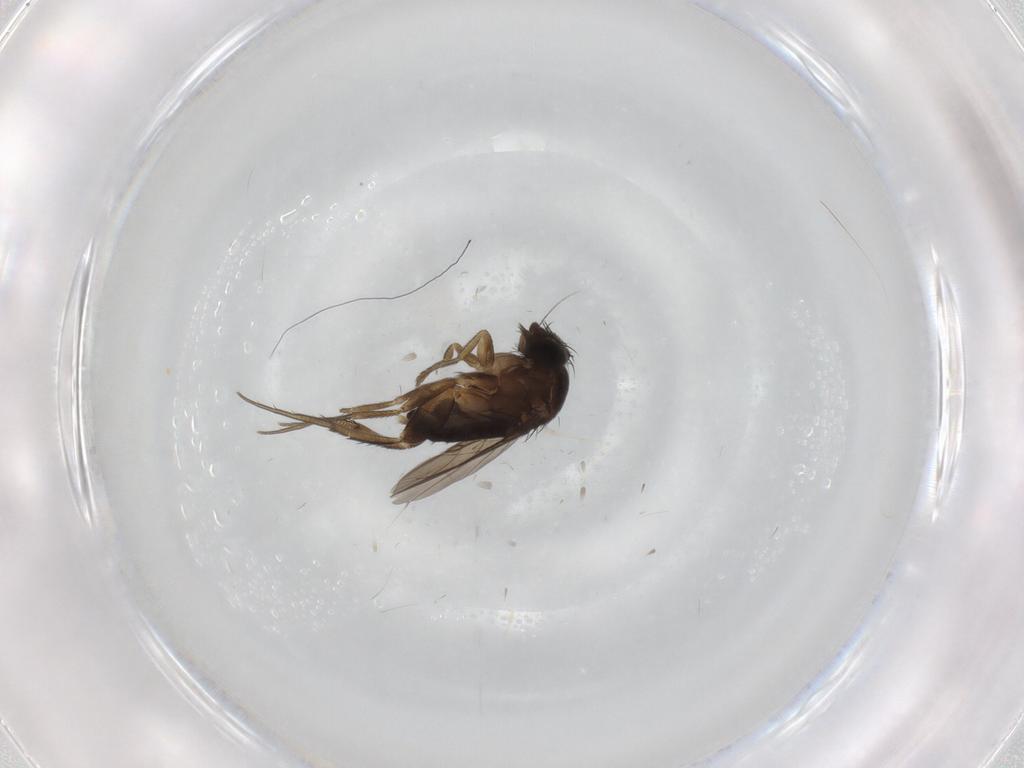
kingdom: Animalia
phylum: Arthropoda
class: Insecta
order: Diptera
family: Phoridae
